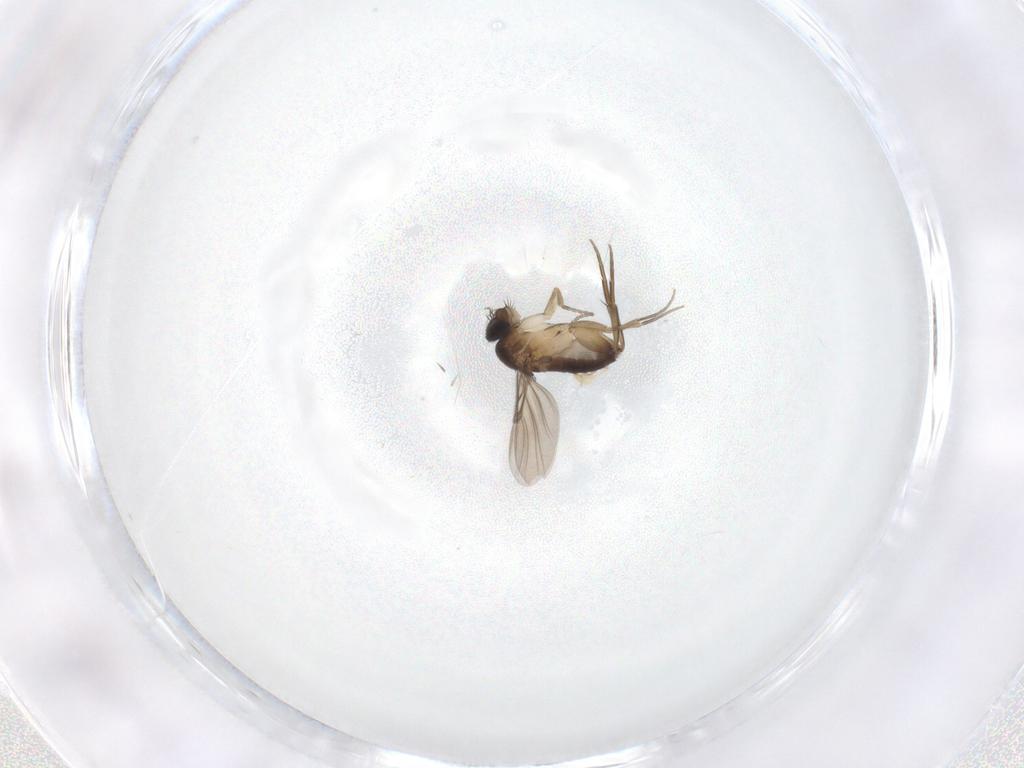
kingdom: Animalia
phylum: Arthropoda
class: Insecta
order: Diptera
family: Phoridae
